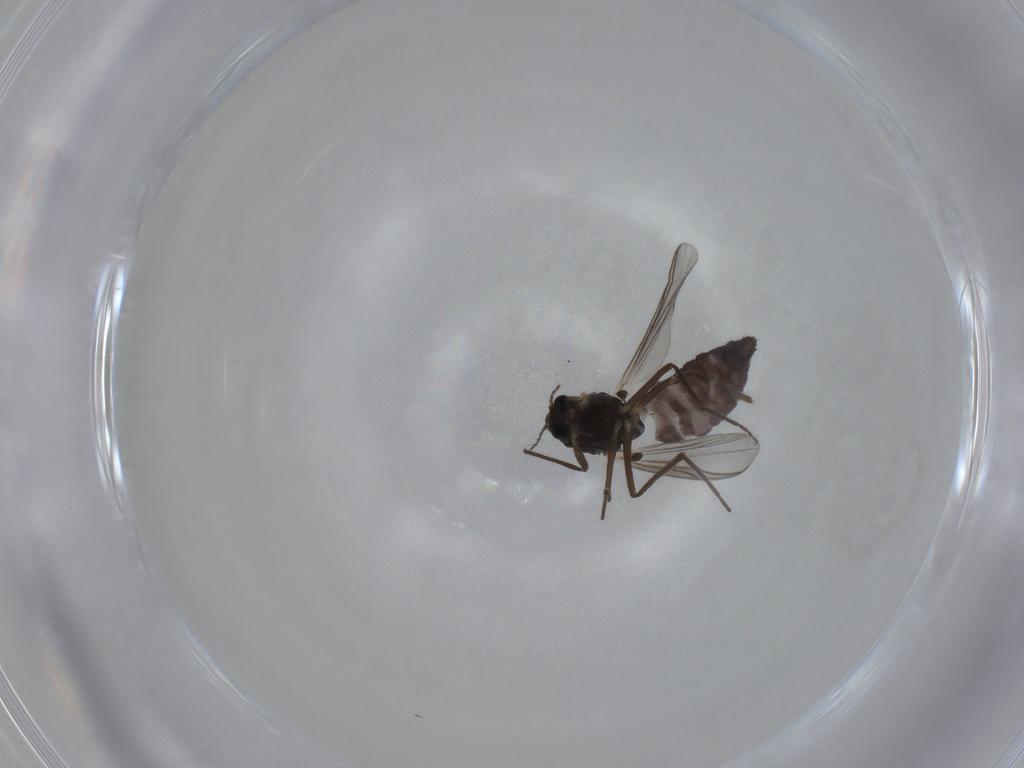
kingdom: Animalia
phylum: Arthropoda
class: Insecta
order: Diptera
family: Chironomidae
